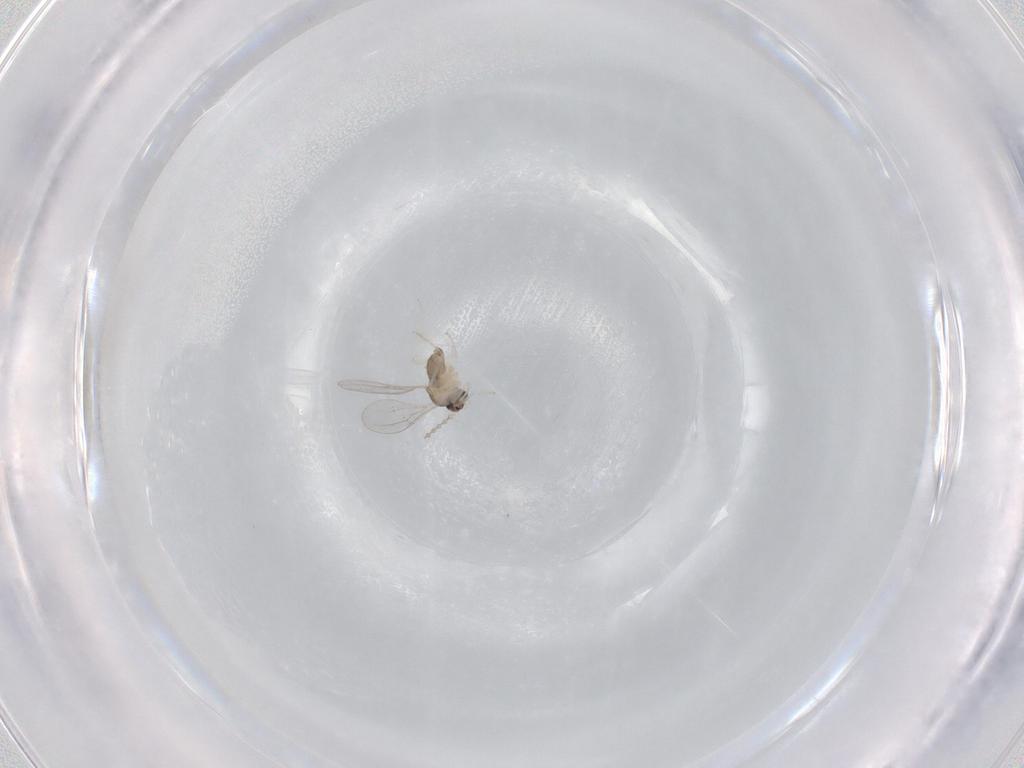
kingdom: Animalia
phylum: Arthropoda
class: Insecta
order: Diptera
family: Cecidomyiidae
